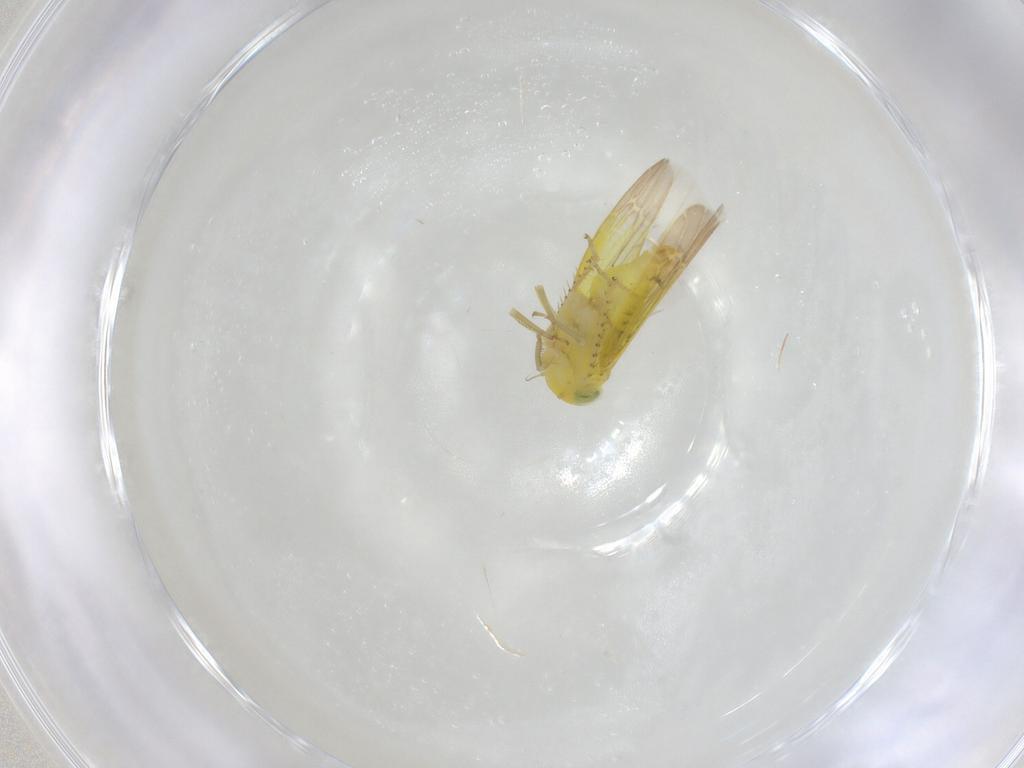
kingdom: Animalia
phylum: Arthropoda
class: Insecta
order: Hemiptera
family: Cicadellidae
